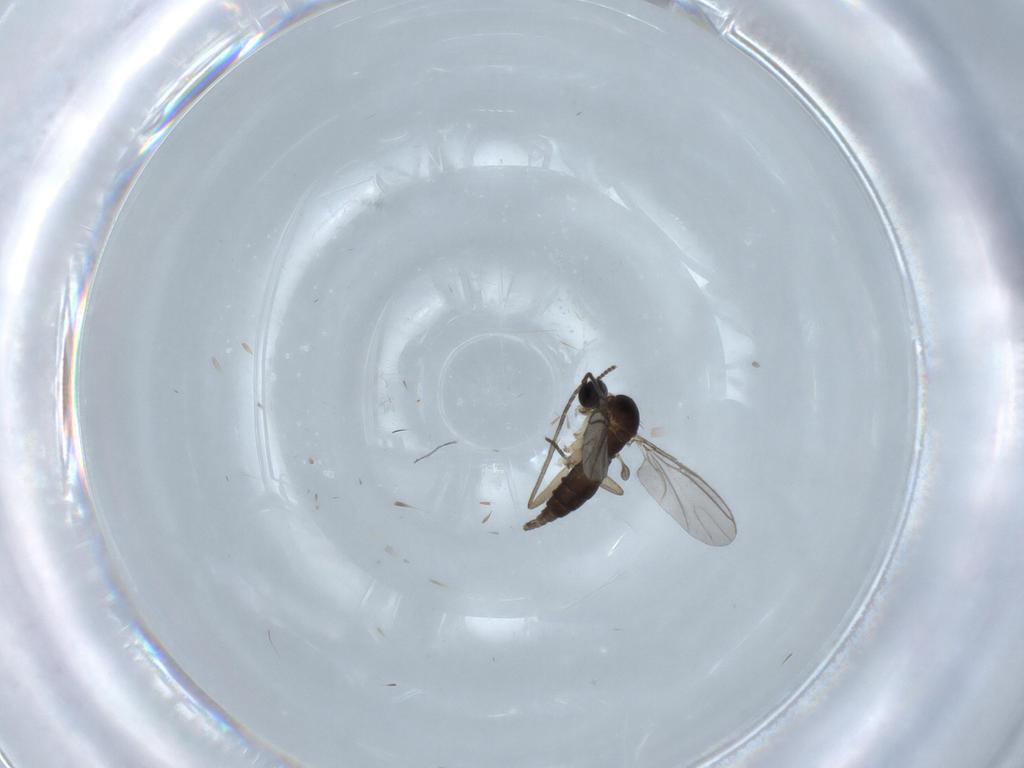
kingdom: Animalia
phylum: Arthropoda
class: Insecta
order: Diptera
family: Sciaridae
